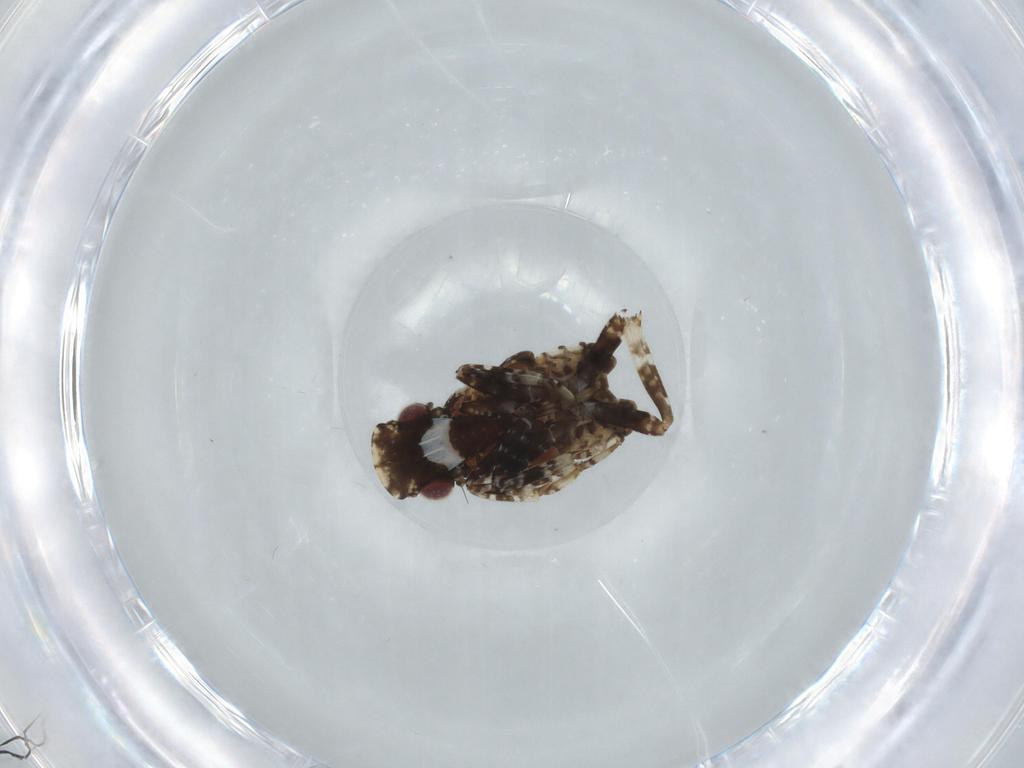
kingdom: Animalia
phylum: Arthropoda
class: Insecta
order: Hemiptera
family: Fulgoridae
